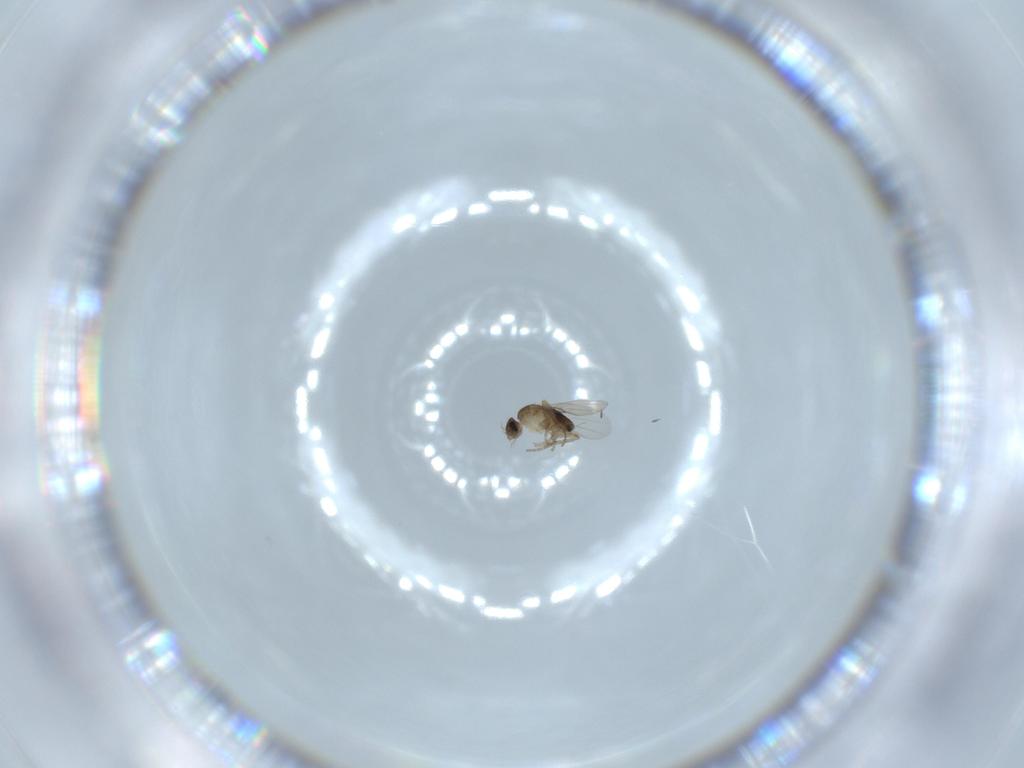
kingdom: Animalia
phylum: Arthropoda
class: Insecta
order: Diptera
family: Phoridae
